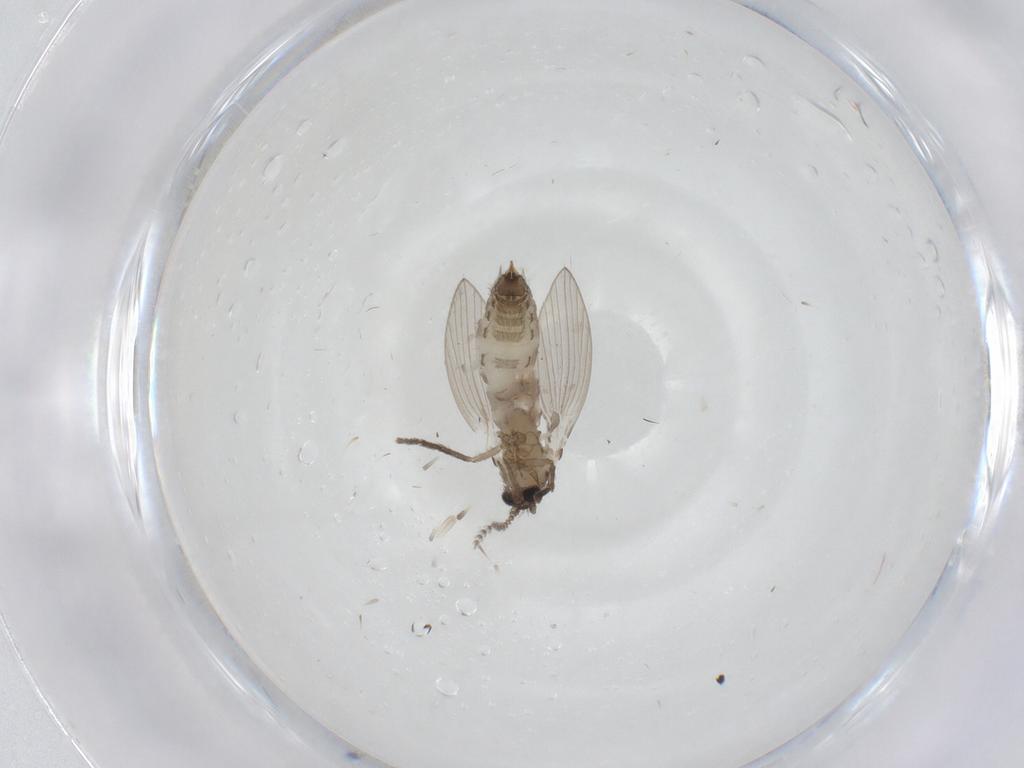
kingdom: Animalia
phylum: Arthropoda
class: Insecta
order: Diptera
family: Psychodidae
